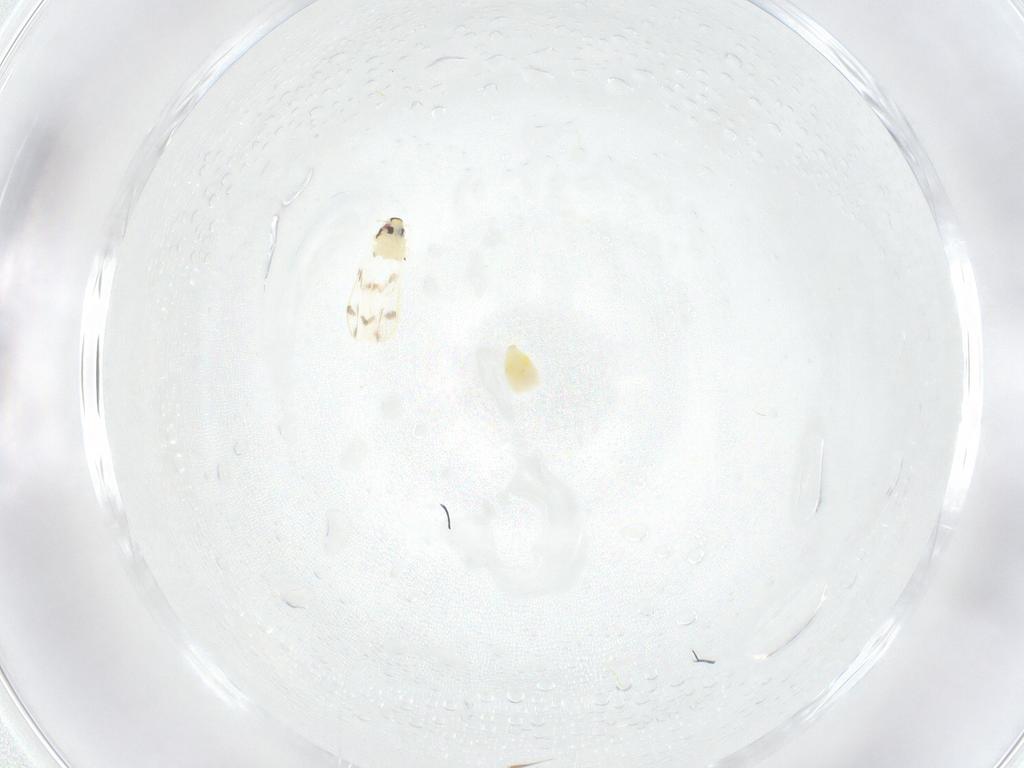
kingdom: Animalia
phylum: Arthropoda
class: Insecta
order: Hemiptera
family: Aleyrodidae
